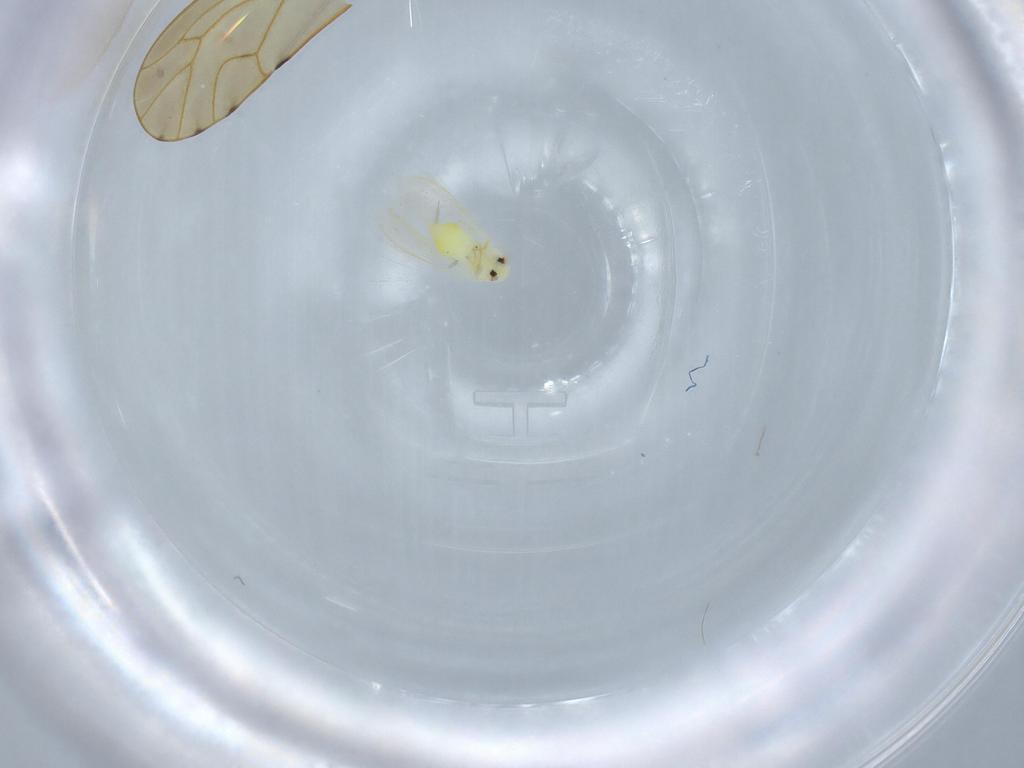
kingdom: Animalia
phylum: Arthropoda
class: Insecta
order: Hemiptera
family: Aleyrodidae
